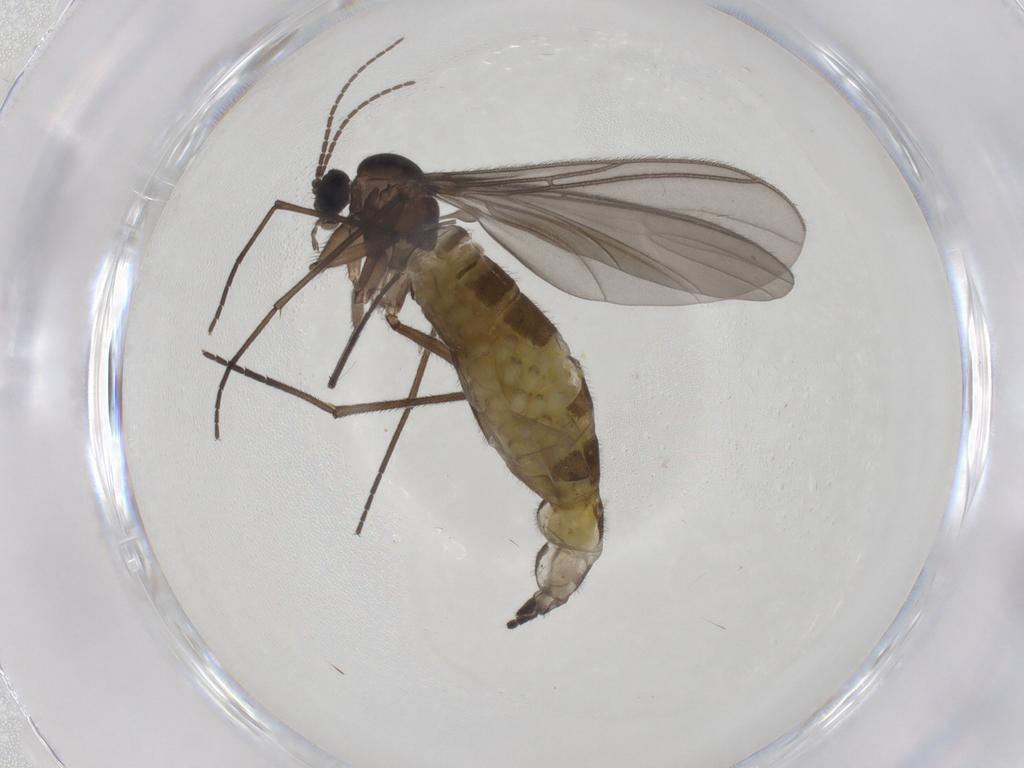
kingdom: Animalia
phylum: Arthropoda
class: Insecta
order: Diptera
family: Sciaridae
